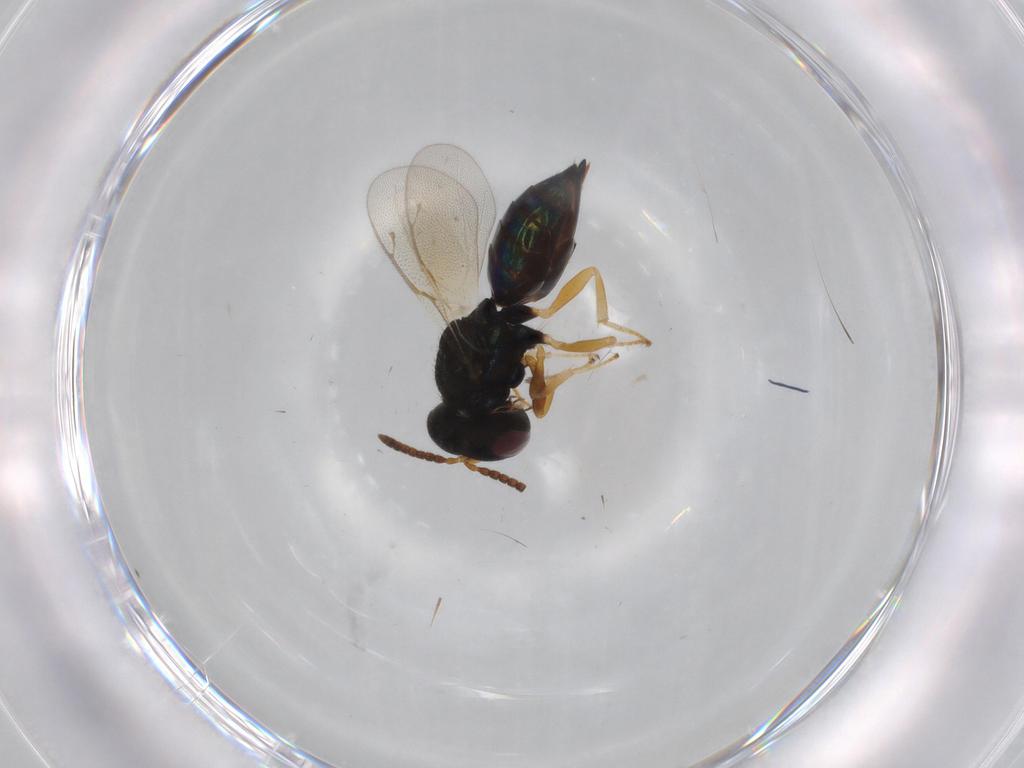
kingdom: Animalia
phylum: Arthropoda
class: Insecta
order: Hymenoptera
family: Pteromalidae
